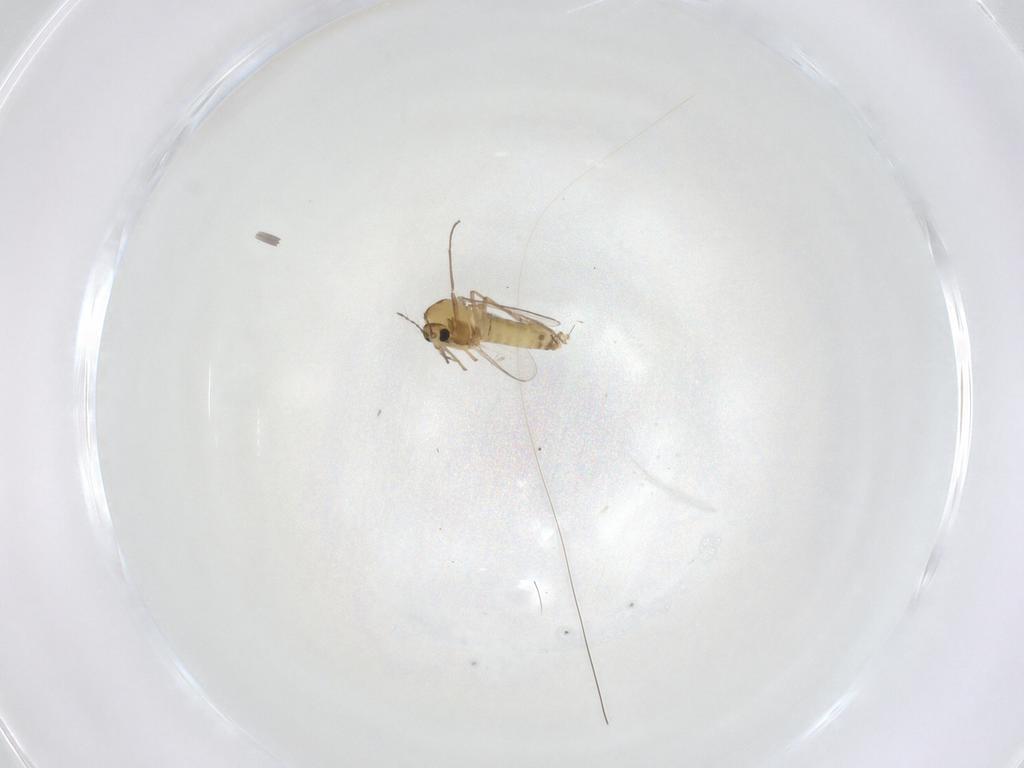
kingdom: Animalia
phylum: Arthropoda
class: Insecta
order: Diptera
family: Chironomidae
